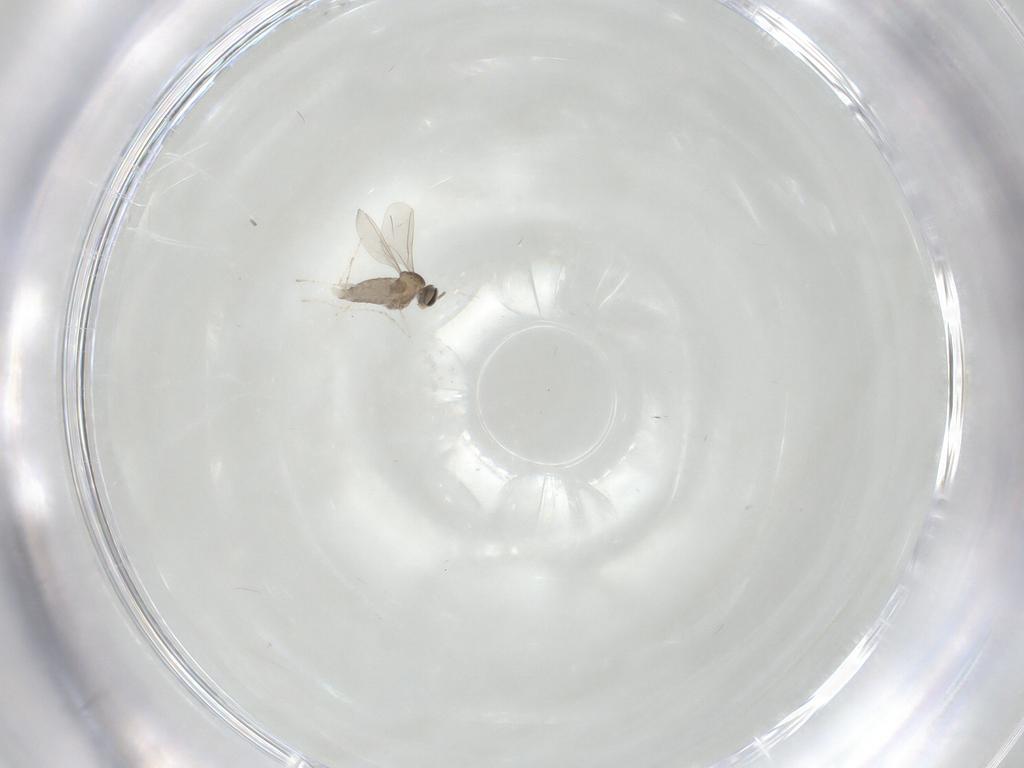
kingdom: Animalia
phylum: Arthropoda
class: Insecta
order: Diptera
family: Cecidomyiidae
